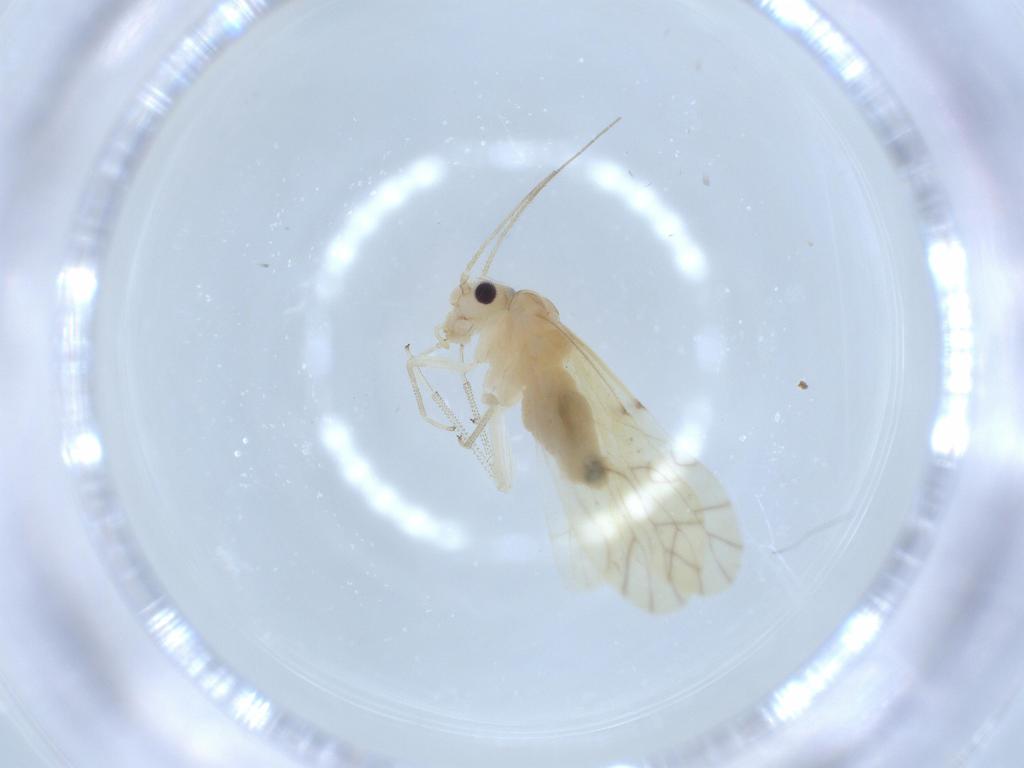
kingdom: Animalia
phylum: Arthropoda
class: Insecta
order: Psocodea
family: Caeciliusidae
